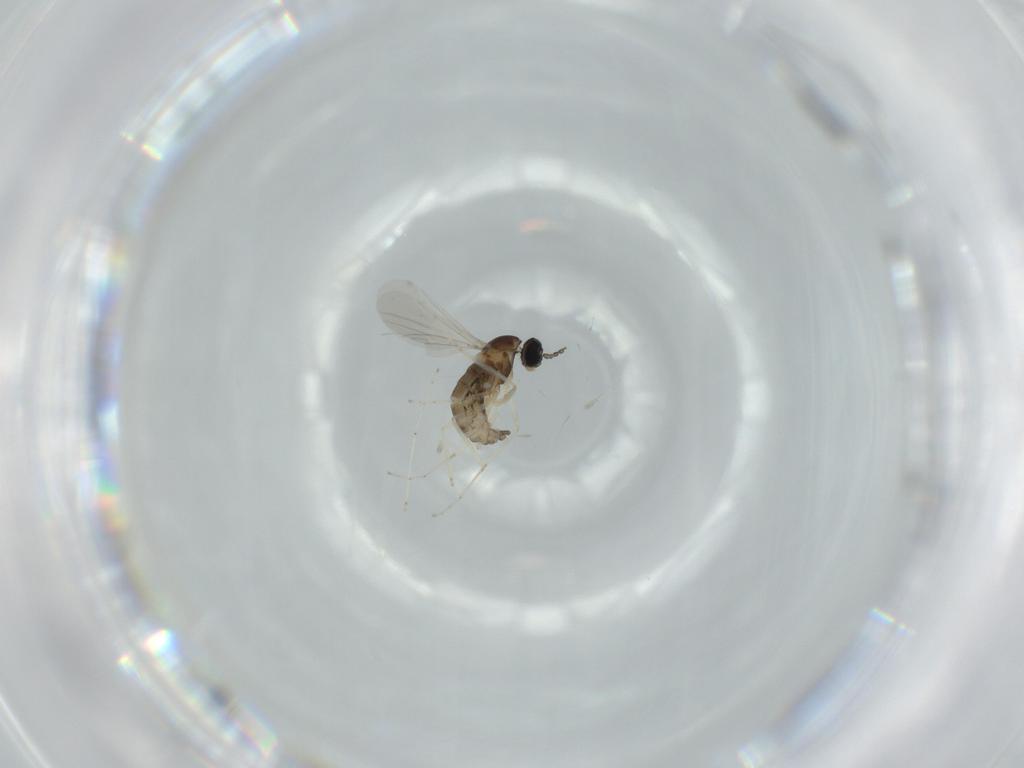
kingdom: Animalia
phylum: Arthropoda
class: Insecta
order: Diptera
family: Cecidomyiidae
